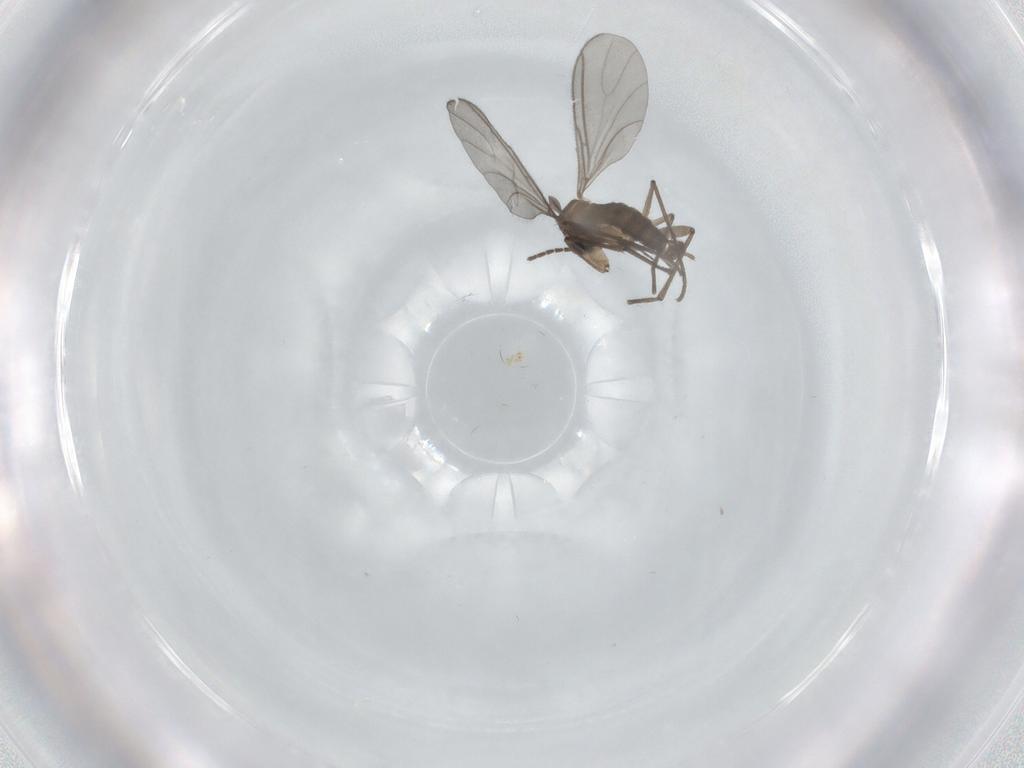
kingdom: Animalia
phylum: Arthropoda
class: Insecta
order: Diptera
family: Sciaridae
